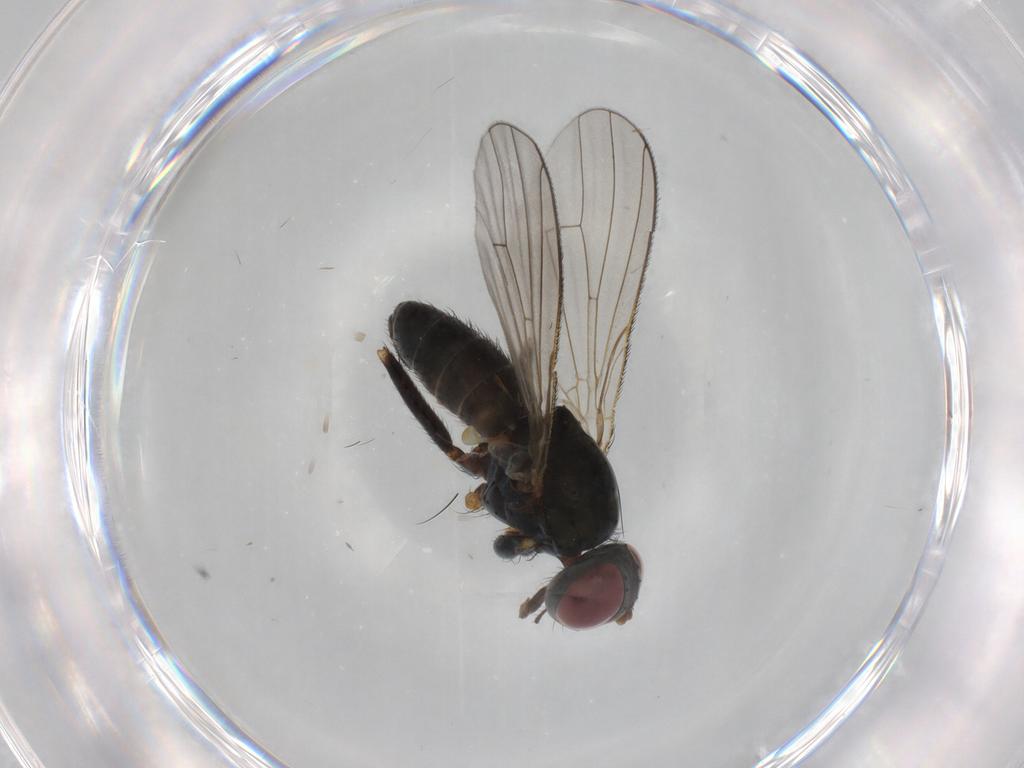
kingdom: Animalia
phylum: Arthropoda
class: Insecta
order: Diptera
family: Muscidae
